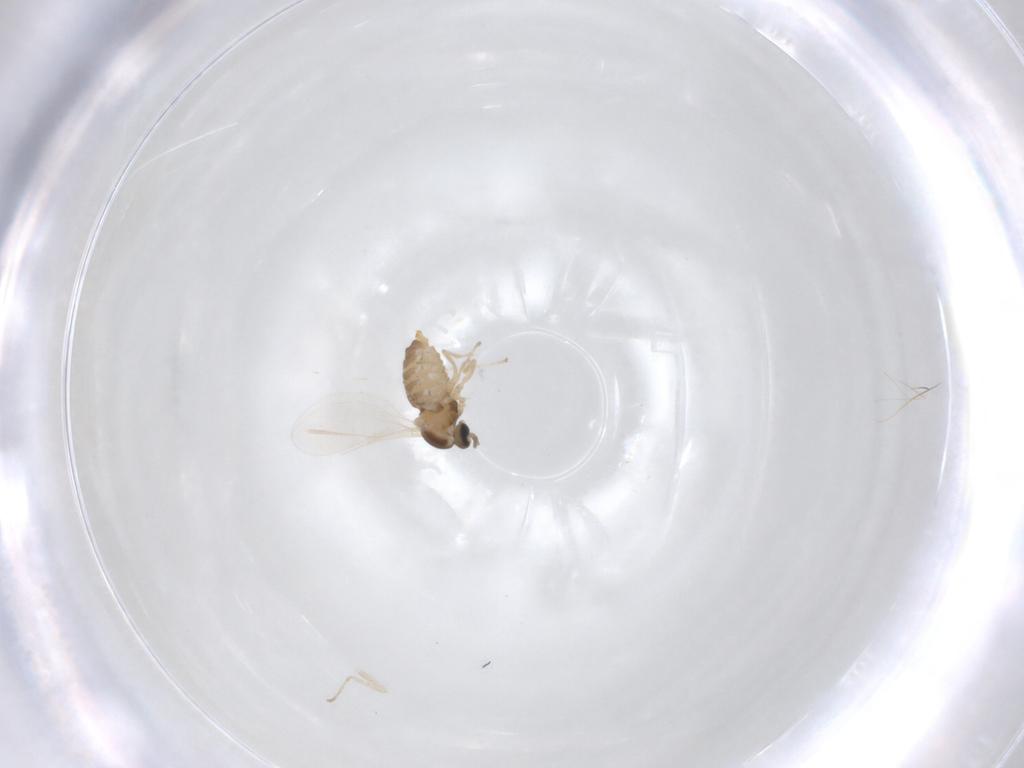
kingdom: Animalia
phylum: Arthropoda
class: Insecta
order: Diptera
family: Cecidomyiidae
